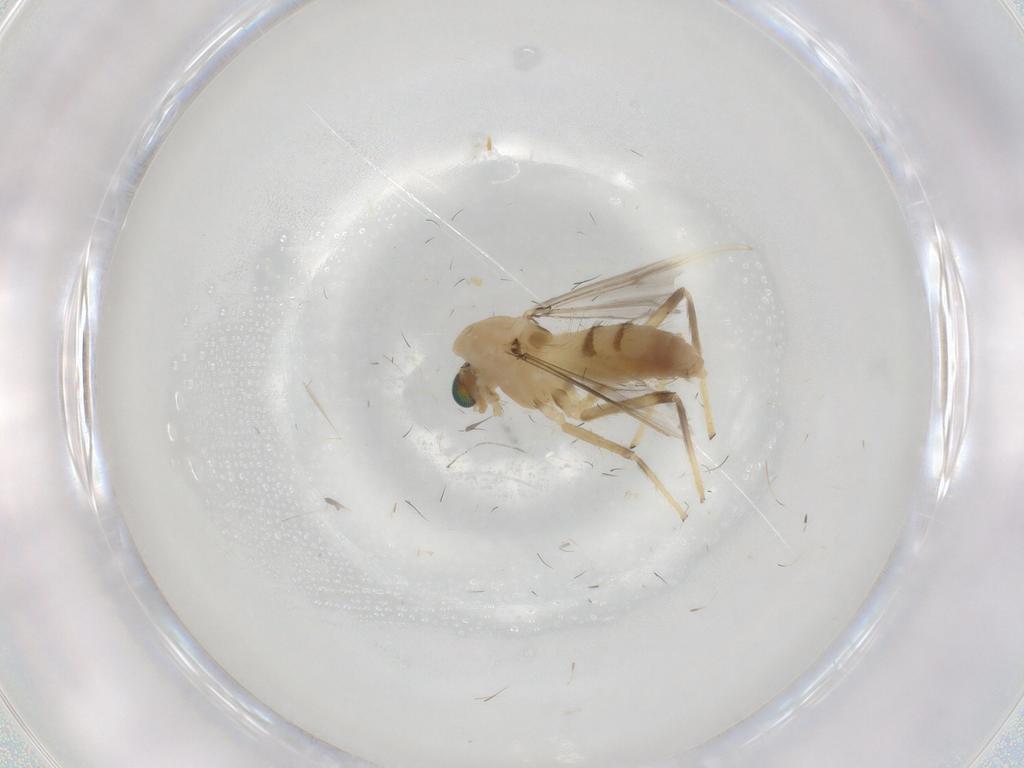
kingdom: Animalia
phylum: Arthropoda
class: Insecta
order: Diptera
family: Chironomidae
